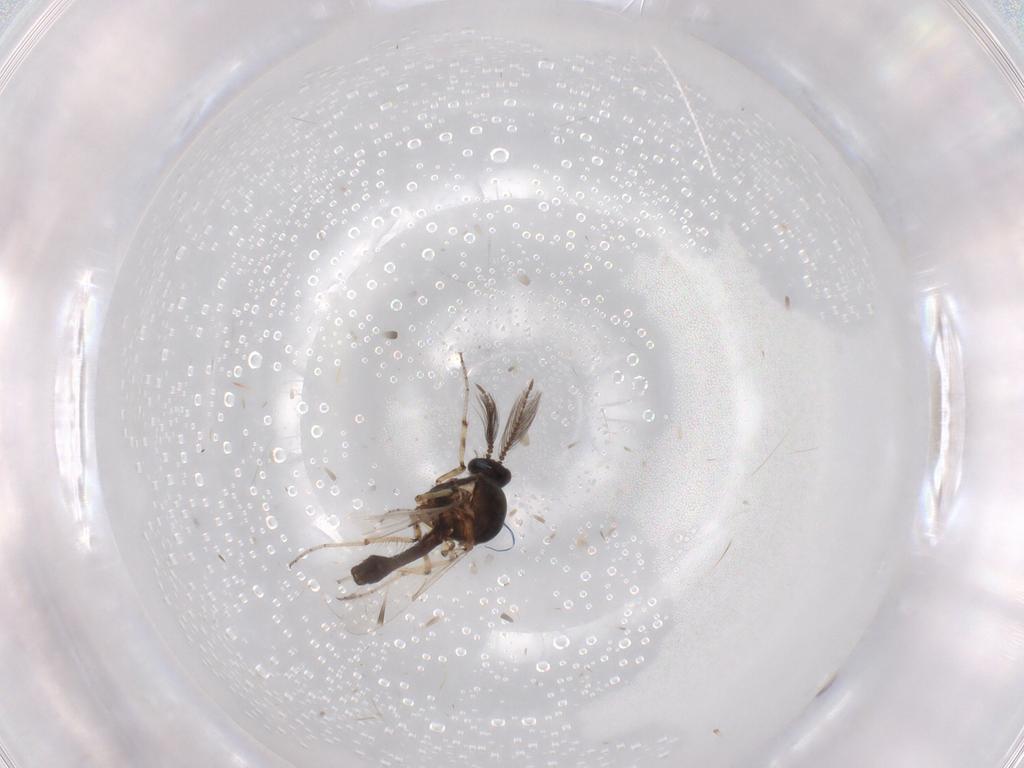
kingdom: Animalia
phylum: Arthropoda
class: Insecta
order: Diptera
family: Ceratopogonidae
